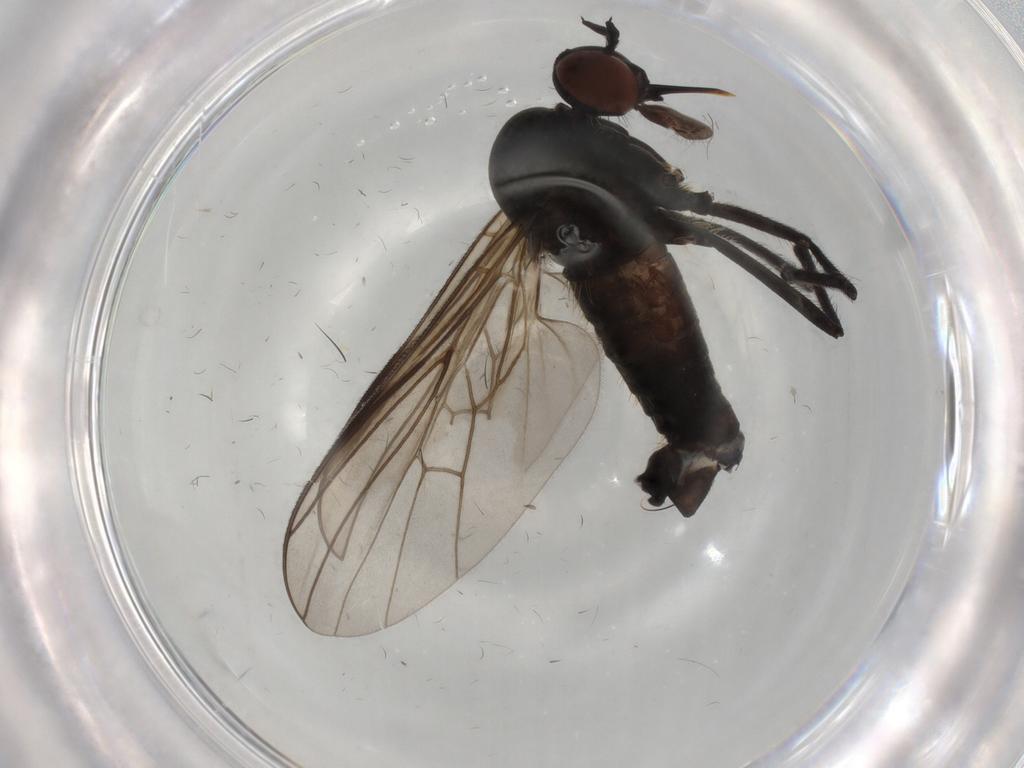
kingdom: Animalia
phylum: Arthropoda
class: Insecta
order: Diptera
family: Empididae
